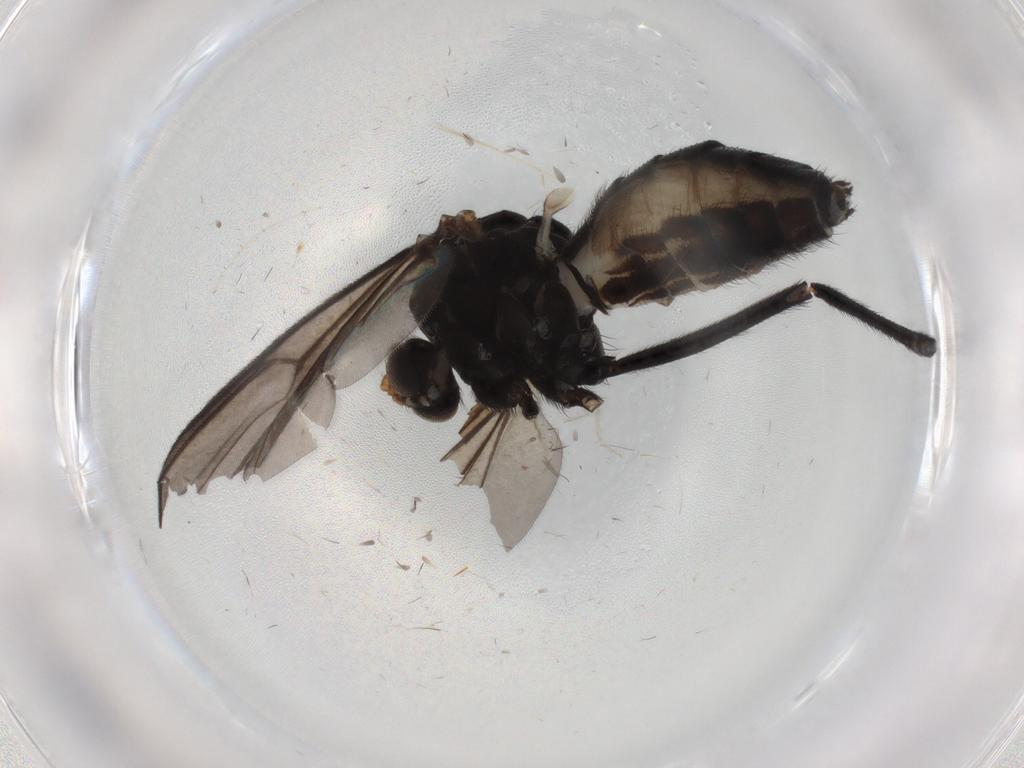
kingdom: Animalia
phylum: Arthropoda
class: Insecta
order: Diptera
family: Mycetophilidae
